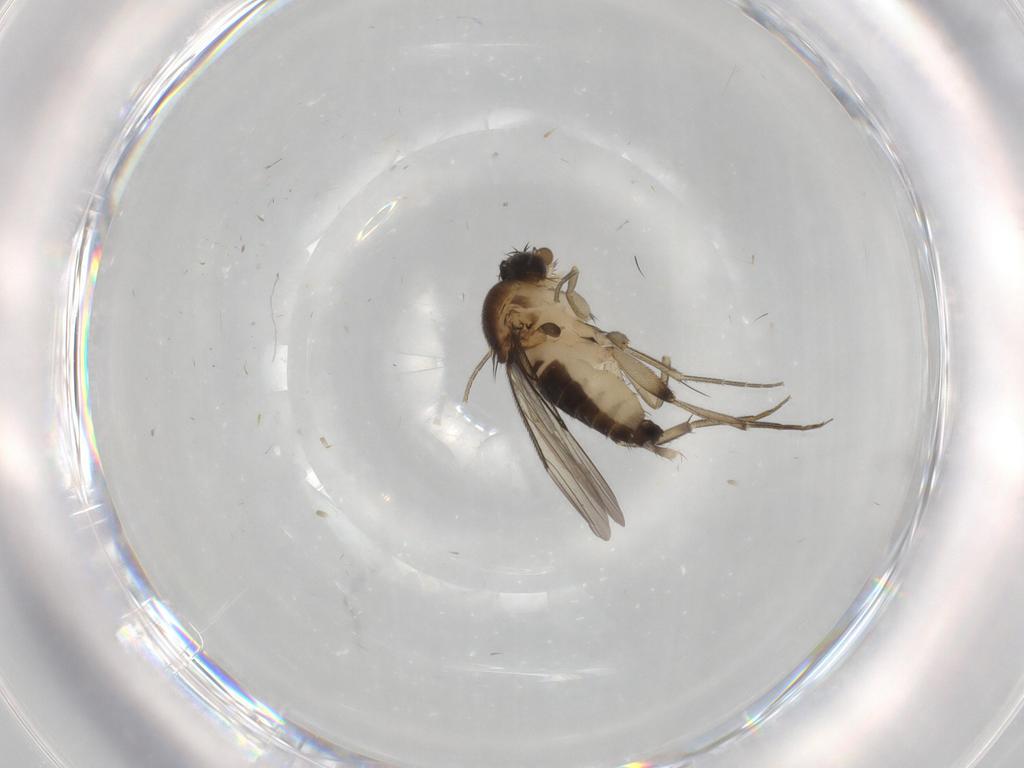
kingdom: Animalia
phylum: Arthropoda
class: Insecta
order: Diptera
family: Phoridae
